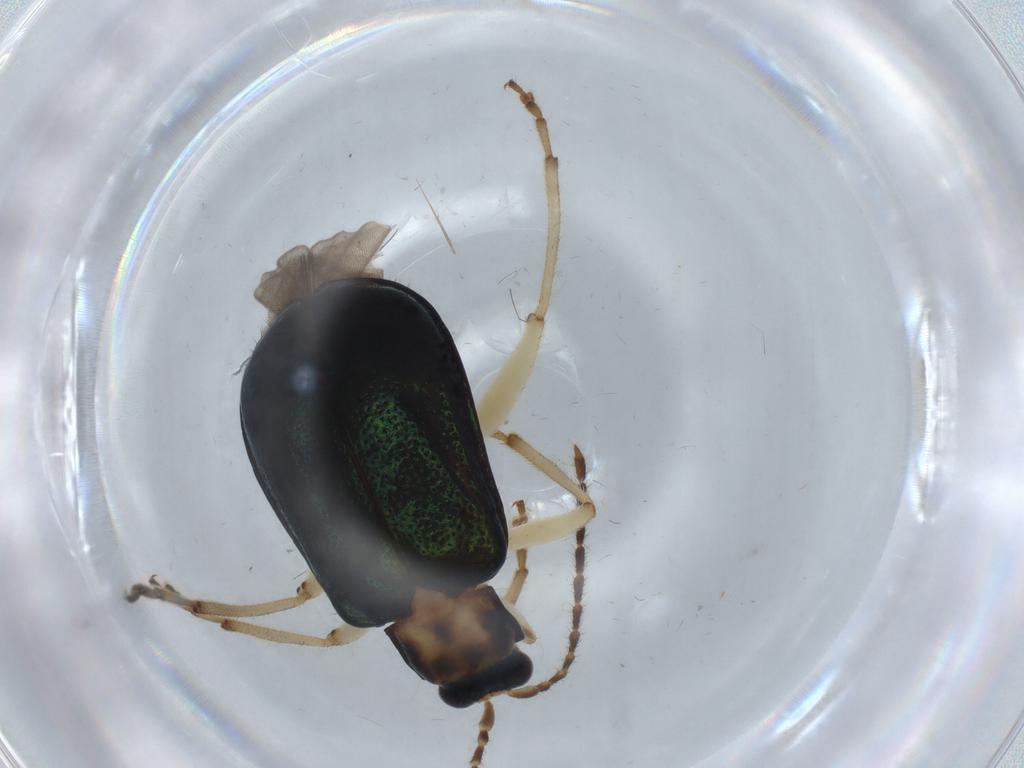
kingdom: Animalia
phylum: Arthropoda
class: Insecta
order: Coleoptera
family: Chrysomelidae
